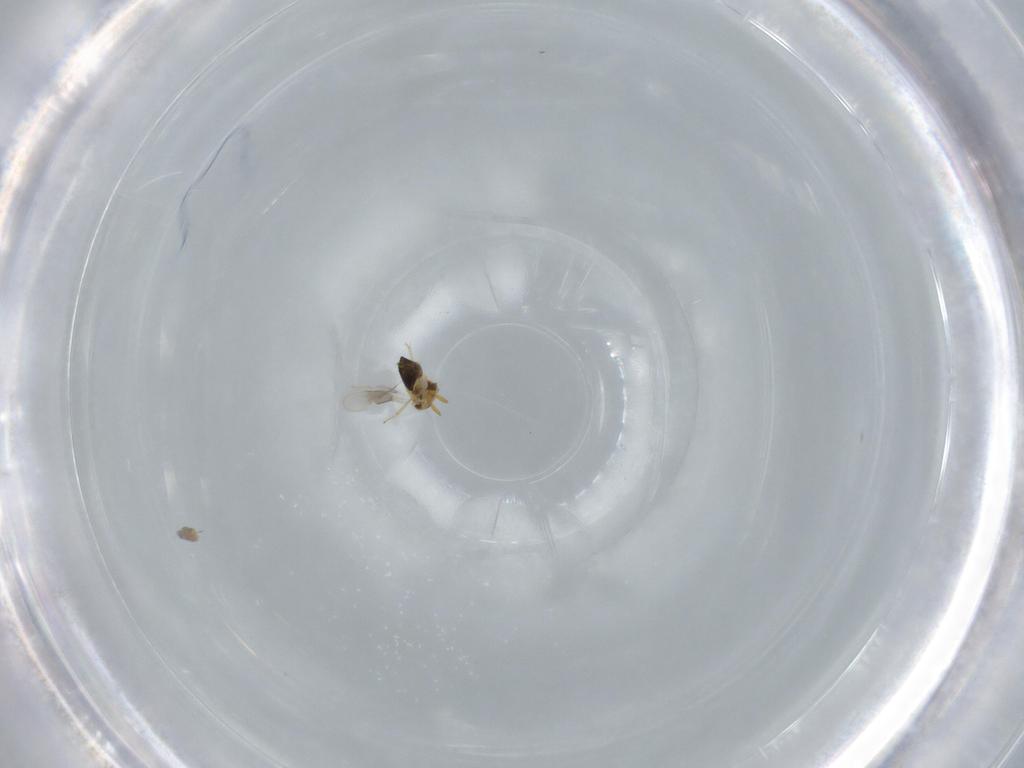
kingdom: Animalia
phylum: Arthropoda
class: Insecta
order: Hymenoptera
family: Aphelinidae
